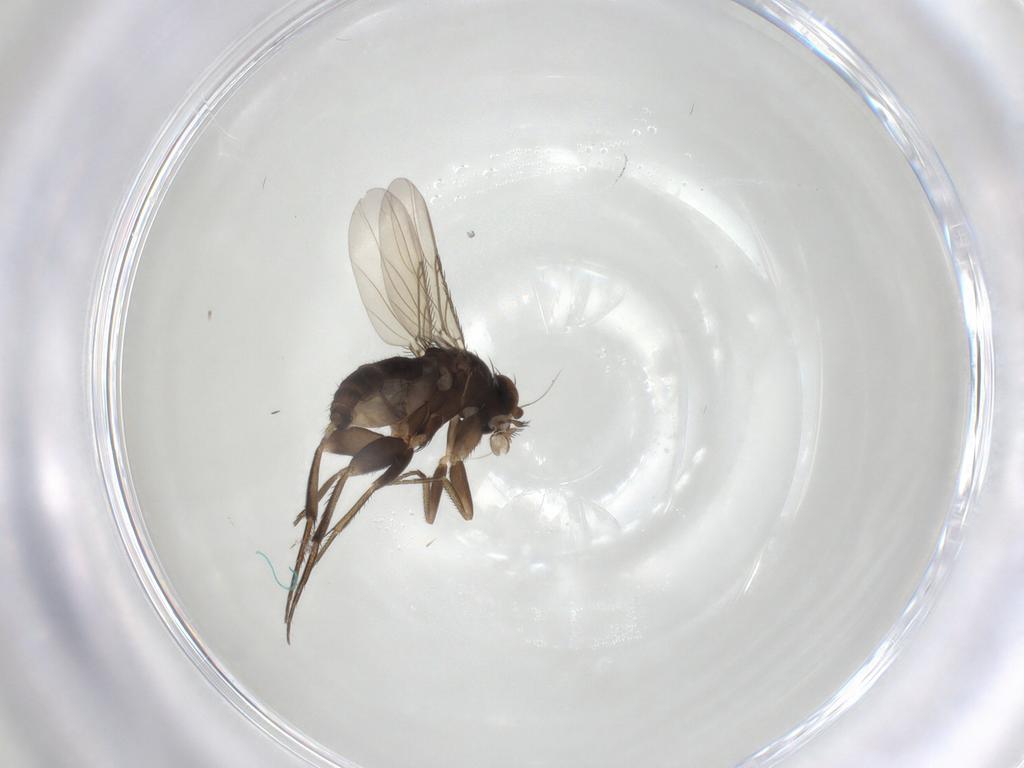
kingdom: Animalia
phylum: Arthropoda
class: Insecta
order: Diptera
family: Phoridae
